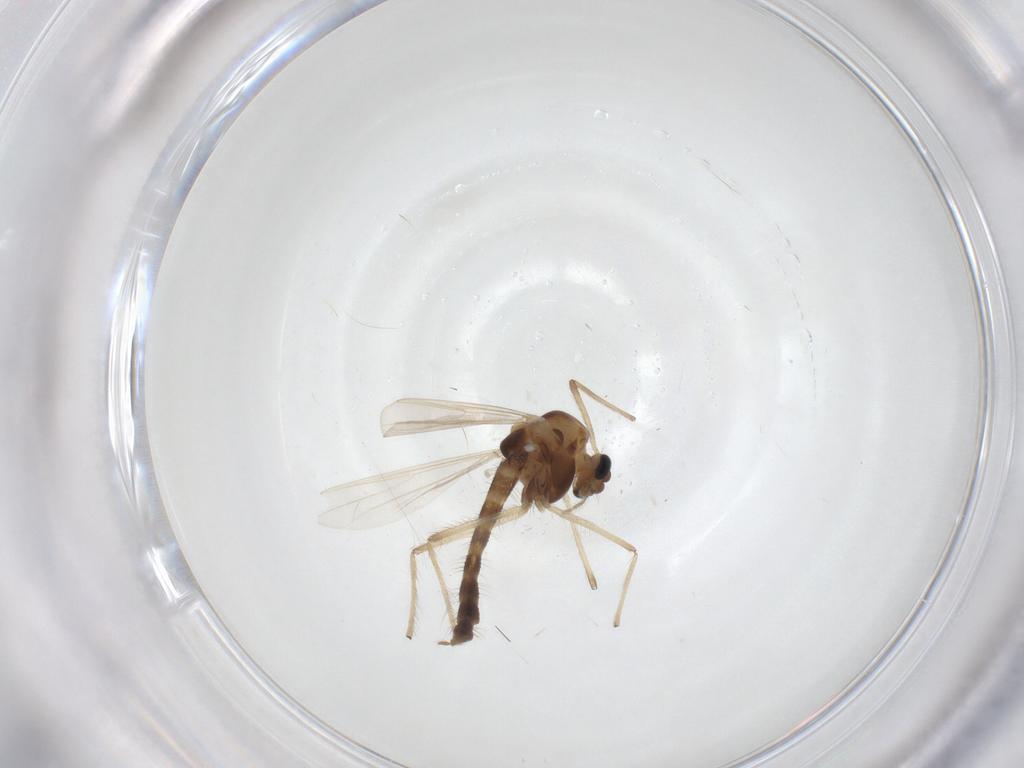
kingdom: Animalia
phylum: Arthropoda
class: Insecta
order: Diptera
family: Chironomidae
